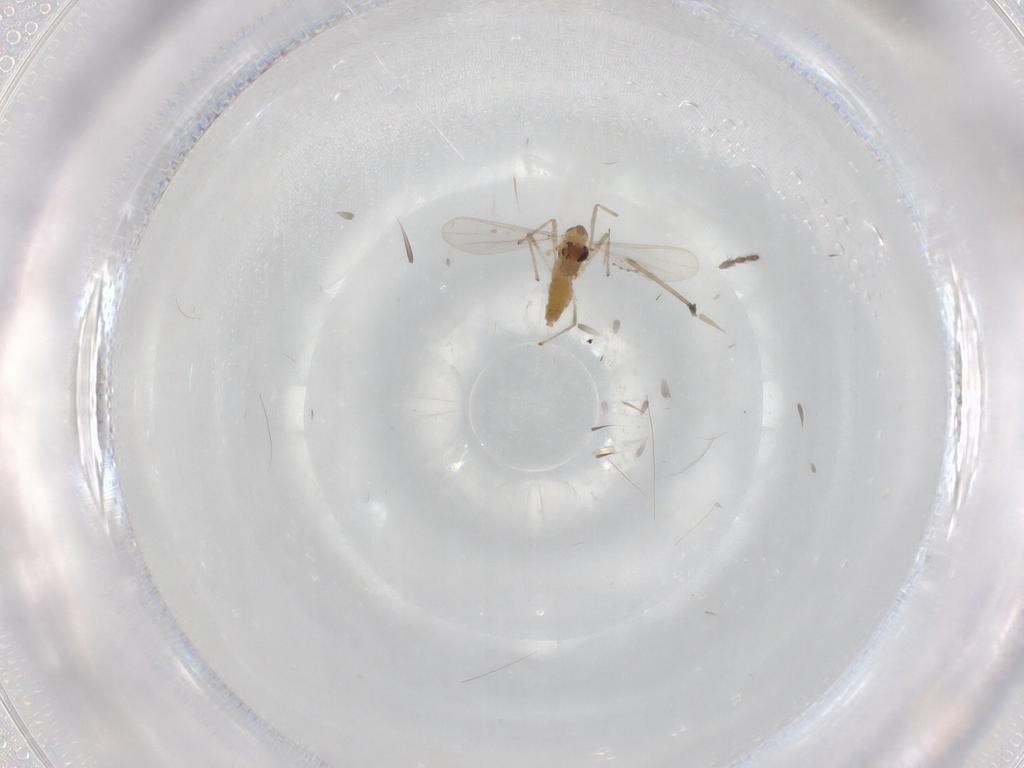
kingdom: Animalia
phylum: Arthropoda
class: Insecta
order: Diptera
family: Cecidomyiidae
